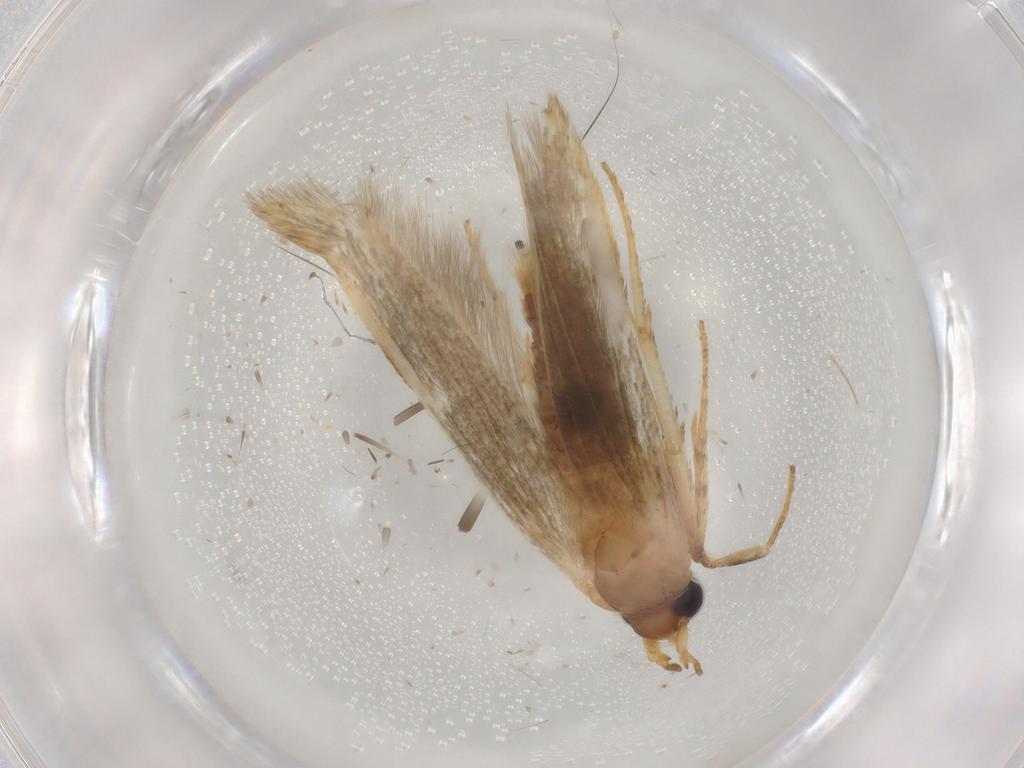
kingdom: Animalia
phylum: Arthropoda
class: Insecta
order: Lepidoptera
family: Blastobasidae
